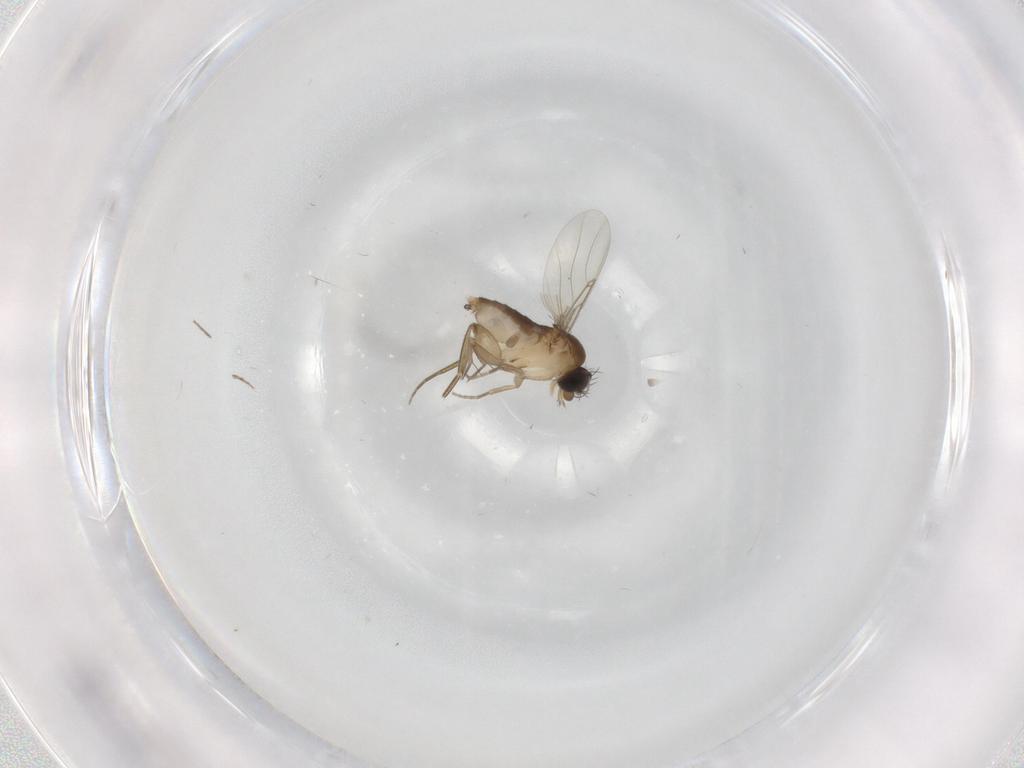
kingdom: Animalia
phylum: Arthropoda
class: Insecta
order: Diptera
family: Phoridae
